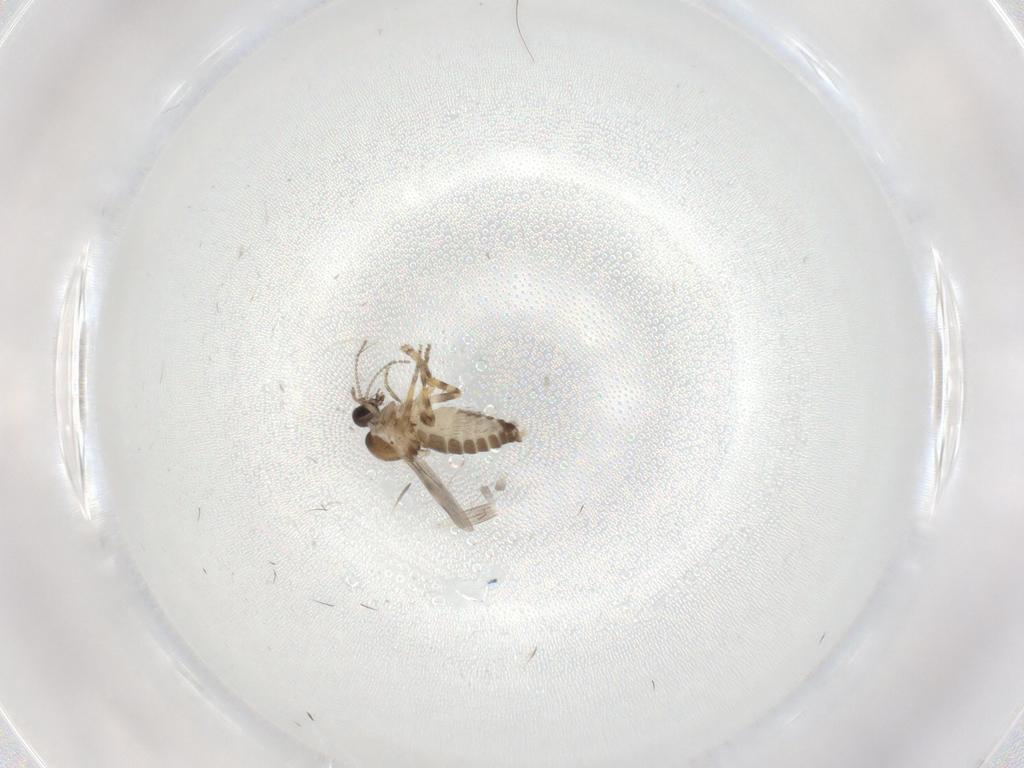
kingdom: Animalia
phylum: Arthropoda
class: Insecta
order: Diptera
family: Ceratopogonidae
